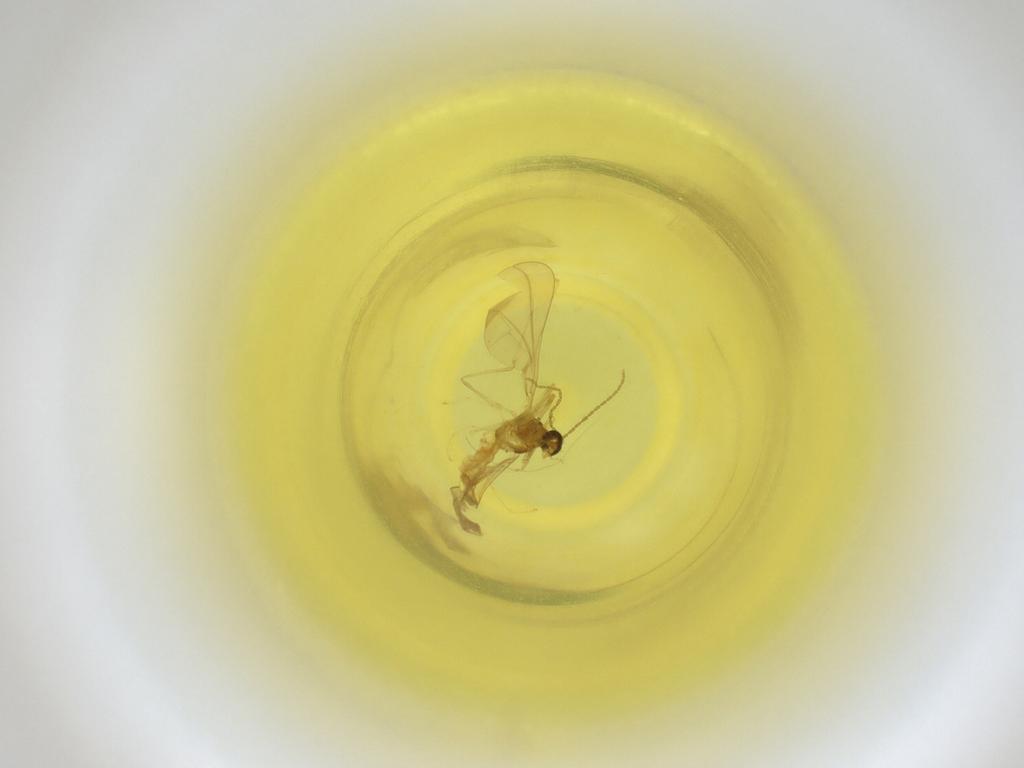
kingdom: Animalia
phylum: Arthropoda
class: Insecta
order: Diptera
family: Cecidomyiidae
